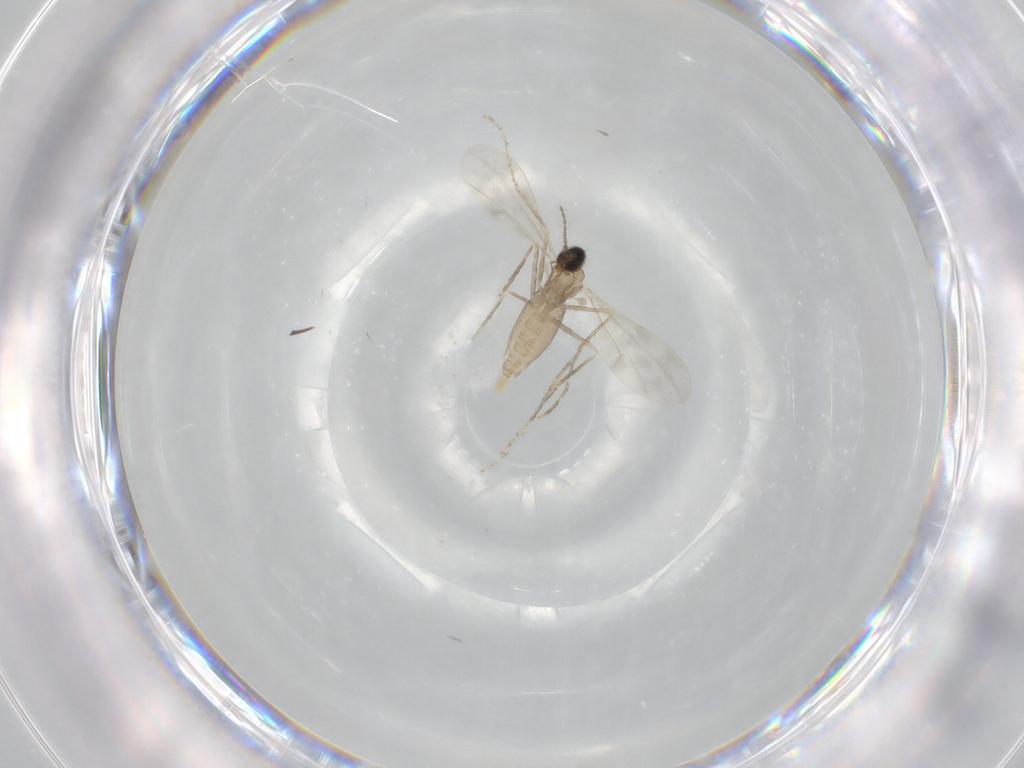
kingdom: Animalia
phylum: Arthropoda
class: Insecta
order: Diptera
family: Cecidomyiidae
